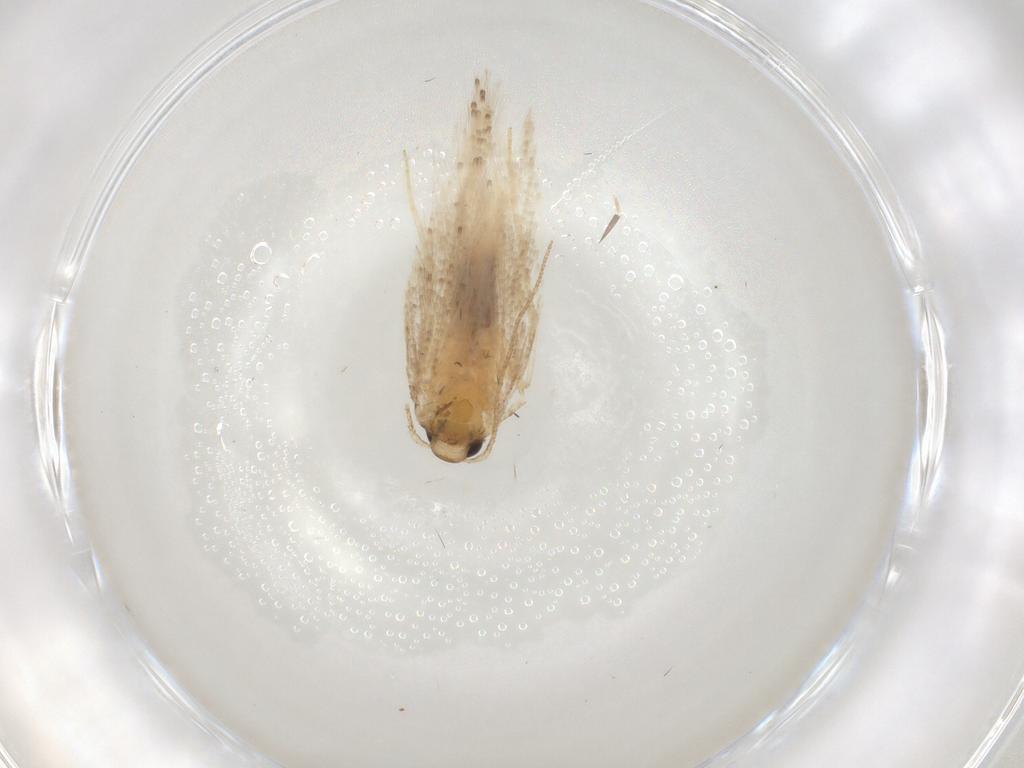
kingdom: Animalia
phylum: Arthropoda
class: Insecta
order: Lepidoptera
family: Gelechiidae
